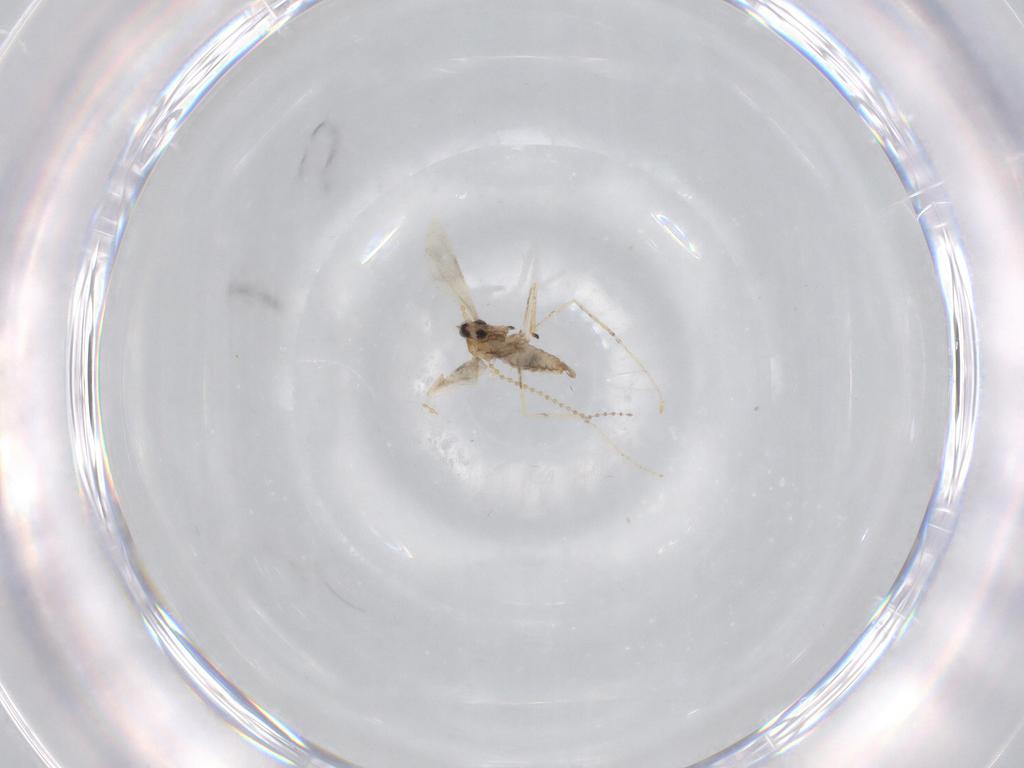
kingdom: Animalia
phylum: Arthropoda
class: Insecta
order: Diptera
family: Cecidomyiidae
